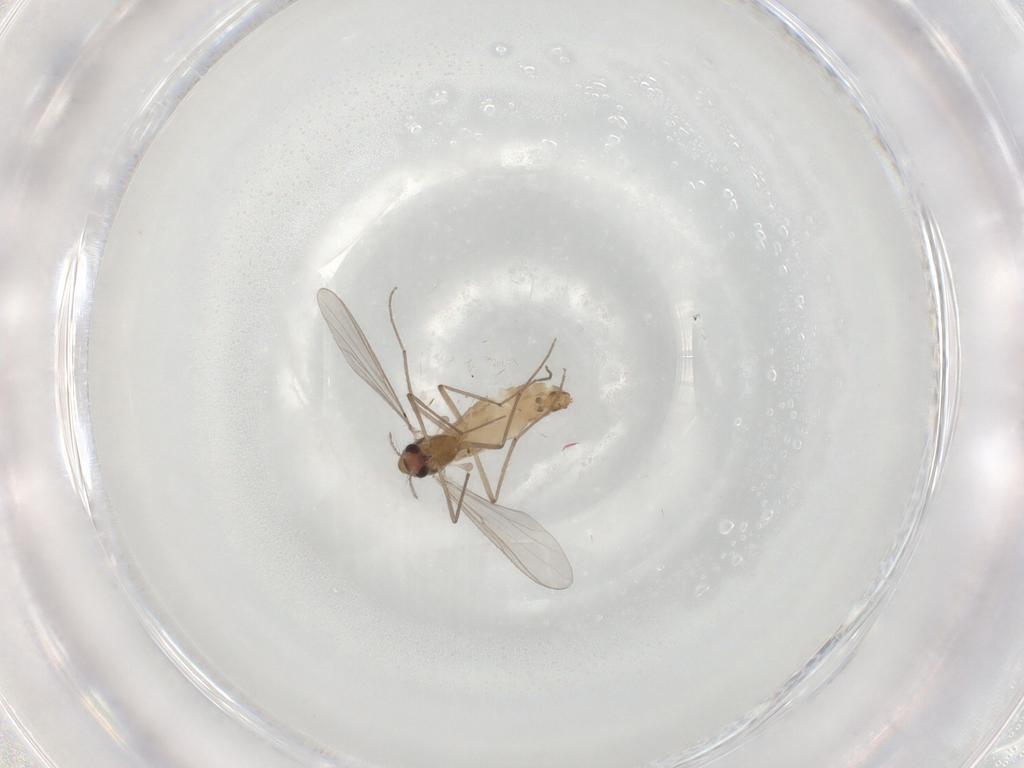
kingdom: Animalia
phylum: Arthropoda
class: Insecta
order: Diptera
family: Chironomidae
